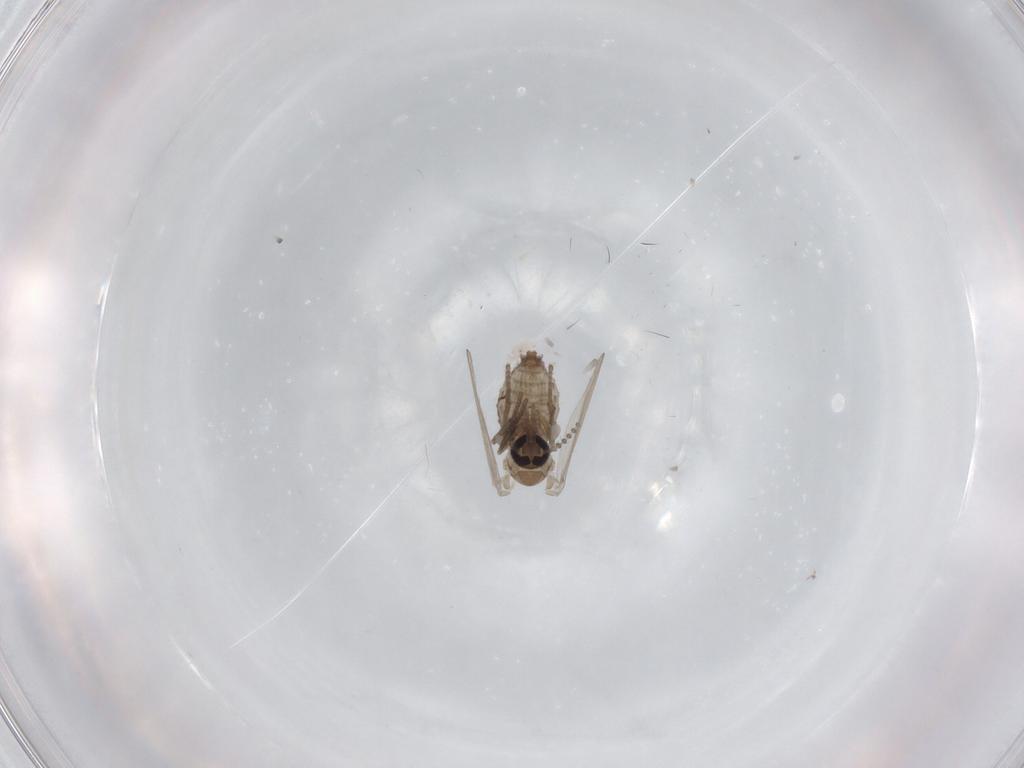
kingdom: Animalia
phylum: Arthropoda
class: Insecta
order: Diptera
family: Psychodidae
